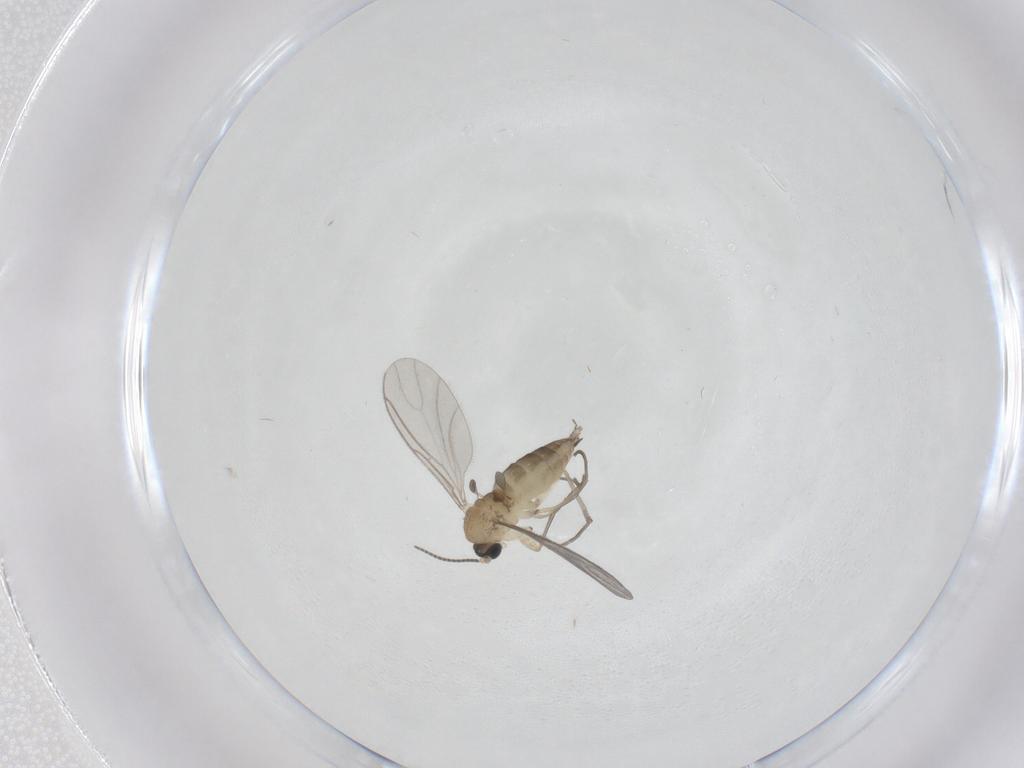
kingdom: Animalia
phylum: Arthropoda
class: Insecta
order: Diptera
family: Sciaridae
